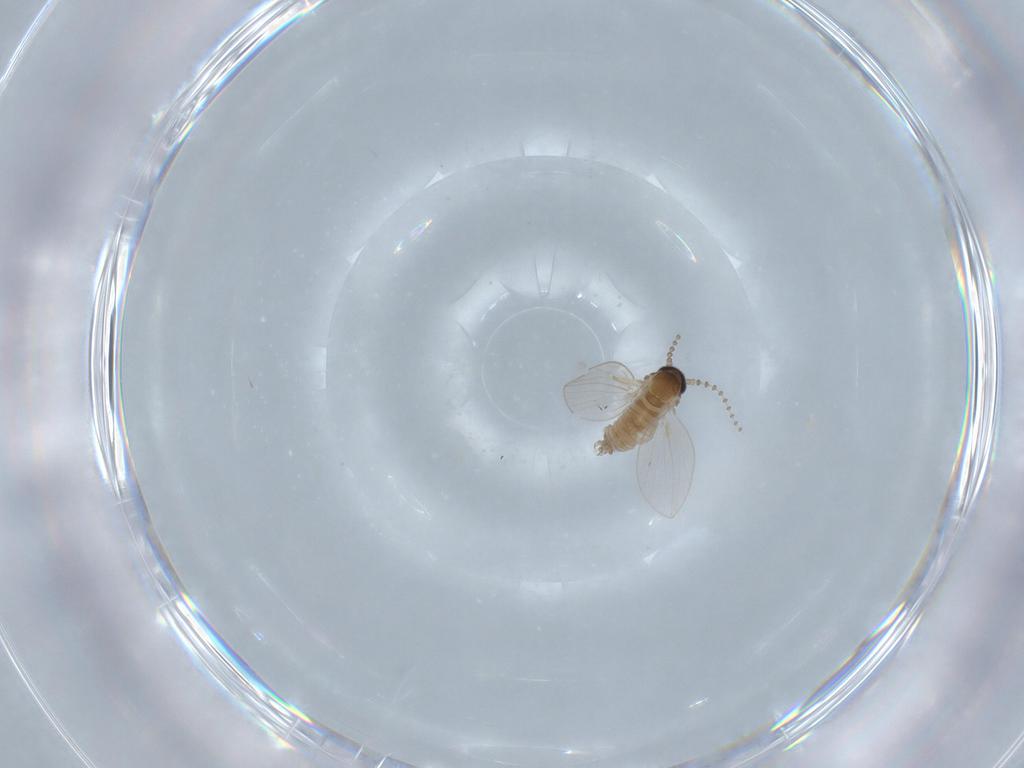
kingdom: Animalia
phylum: Arthropoda
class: Insecta
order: Diptera
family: Psychodidae
